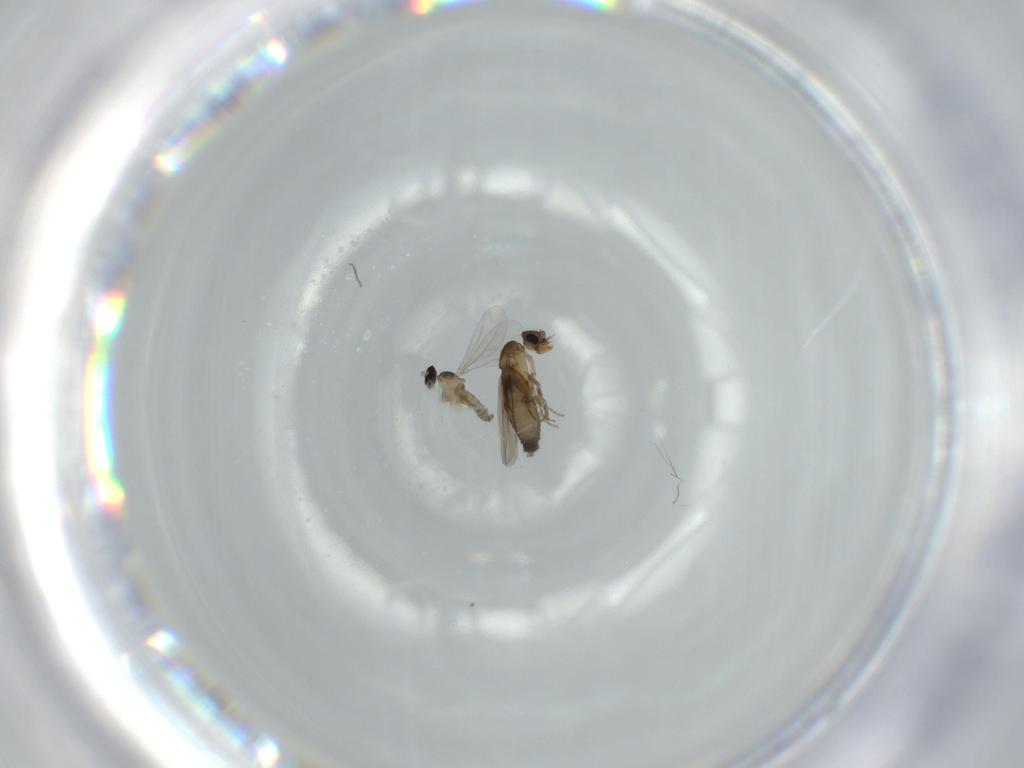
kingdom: Animalia
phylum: Arthropoda
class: Insecta
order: Diptera
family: Phoridae
